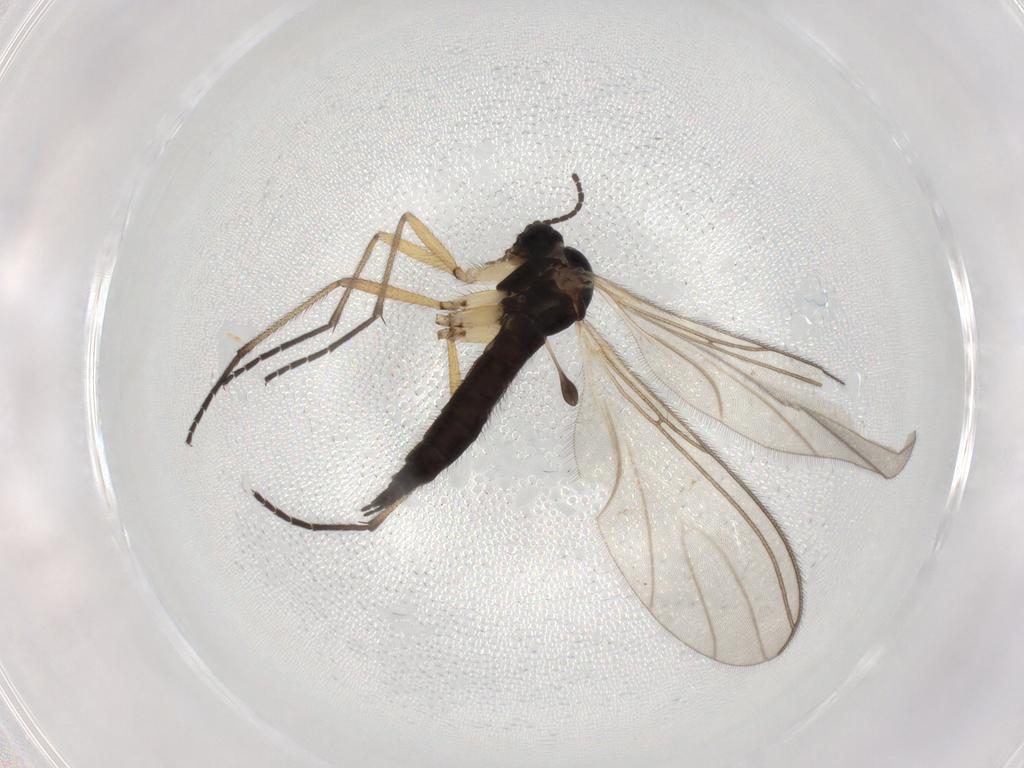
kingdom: Animalia
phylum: Arthropoda
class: Insecta
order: Diptera
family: Sciaridae
